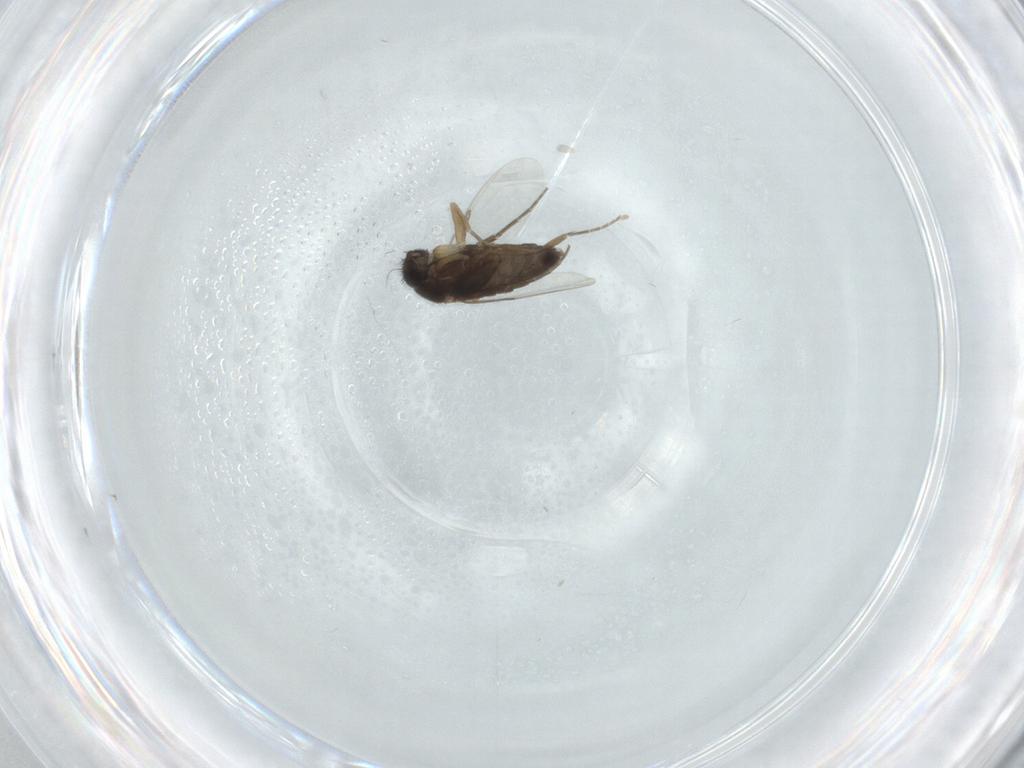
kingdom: Animalia
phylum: Arthropoda
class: Insecta
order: Diptera
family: Phoridae
